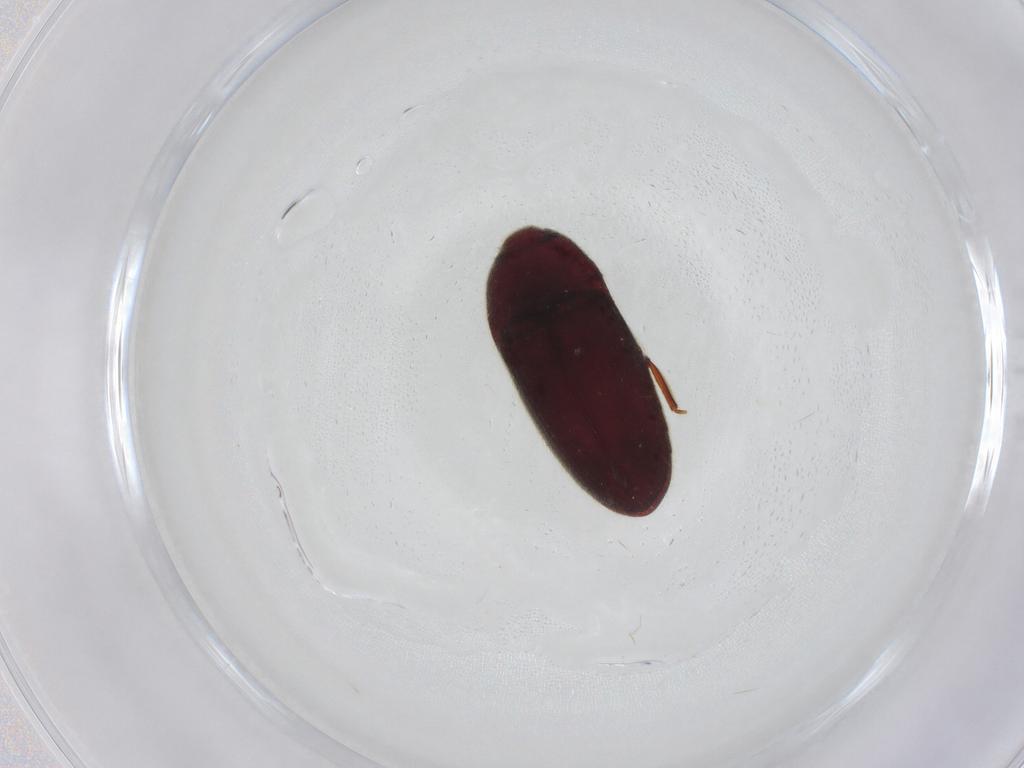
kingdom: Animalia
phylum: Arthropoda
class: Insecta
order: Coleoptera
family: Throscidae
